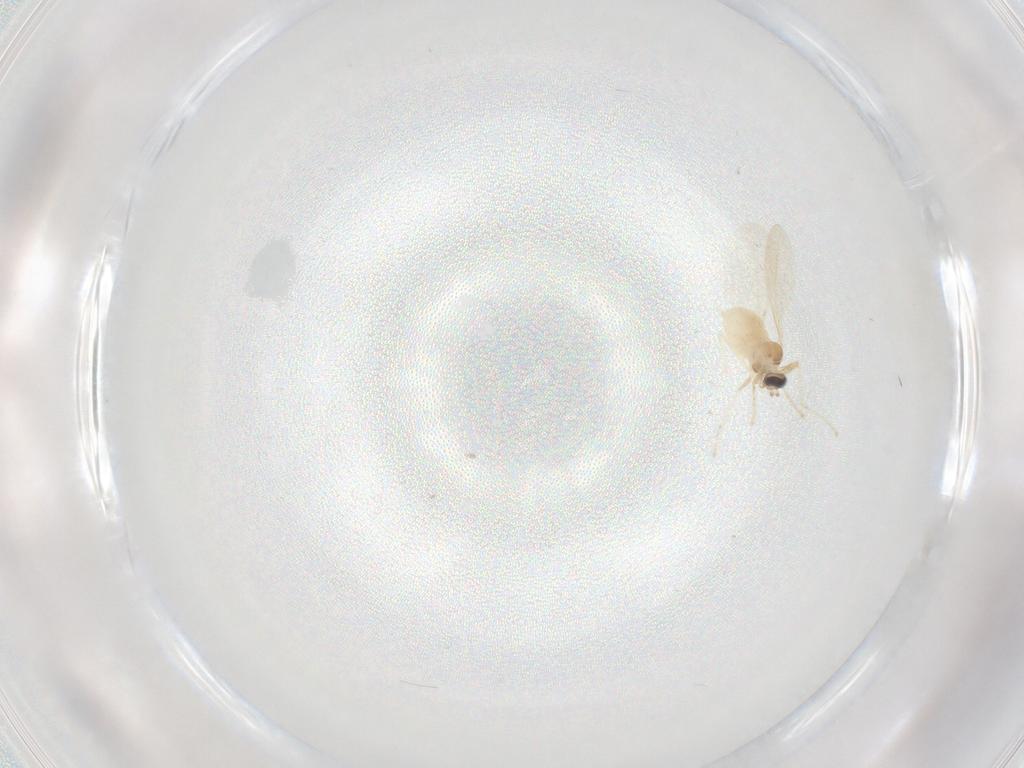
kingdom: Animalia
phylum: Arthropoda
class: Insecta
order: Diptera
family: Cecidomyiidae
